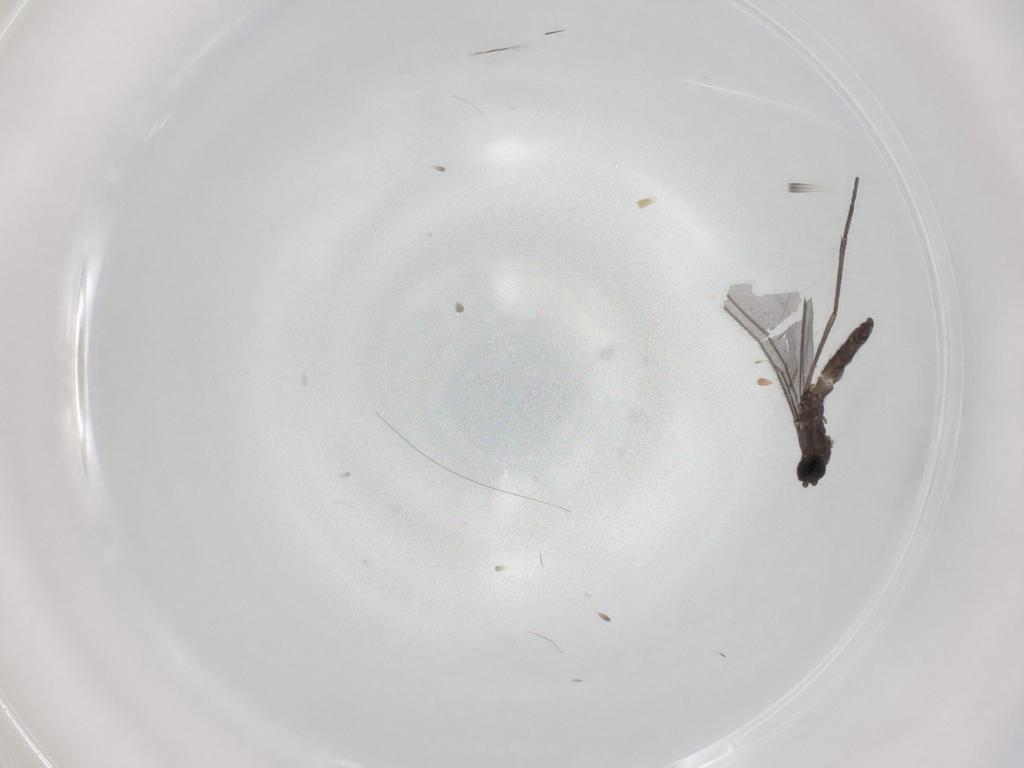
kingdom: Animalia
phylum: Arthropoda
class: Insecta
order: Diptera
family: Sciaridae
